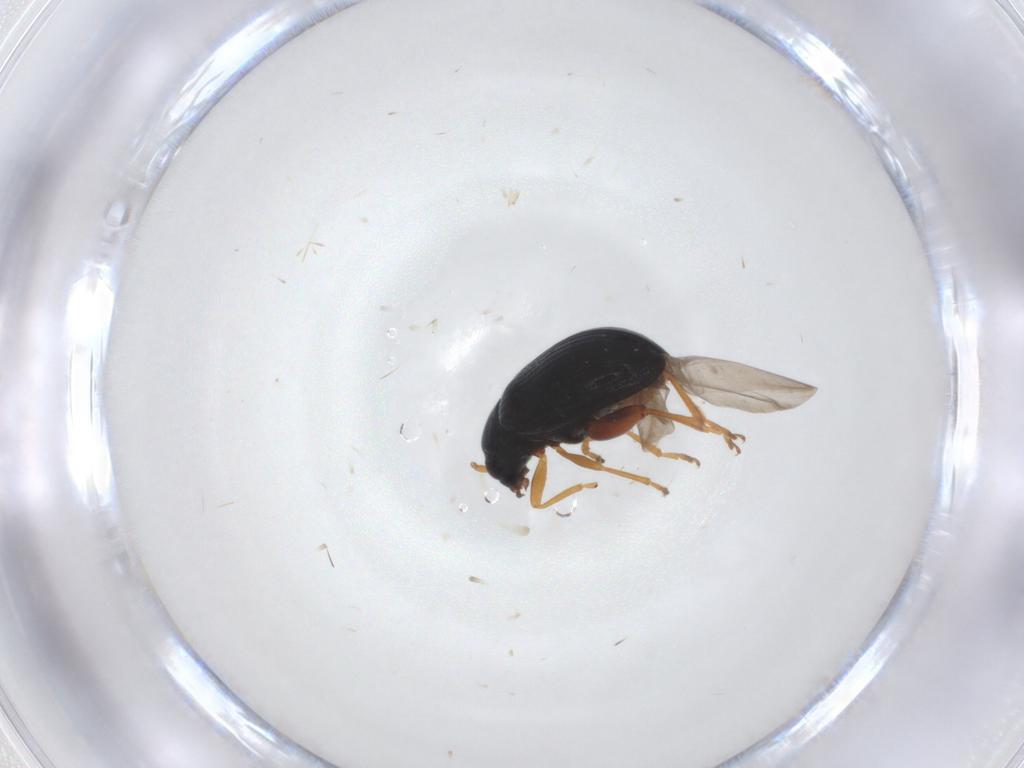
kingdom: Animalia
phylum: Arthropoda
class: Insecta
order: Coleoptera
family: Chrysomelidae
